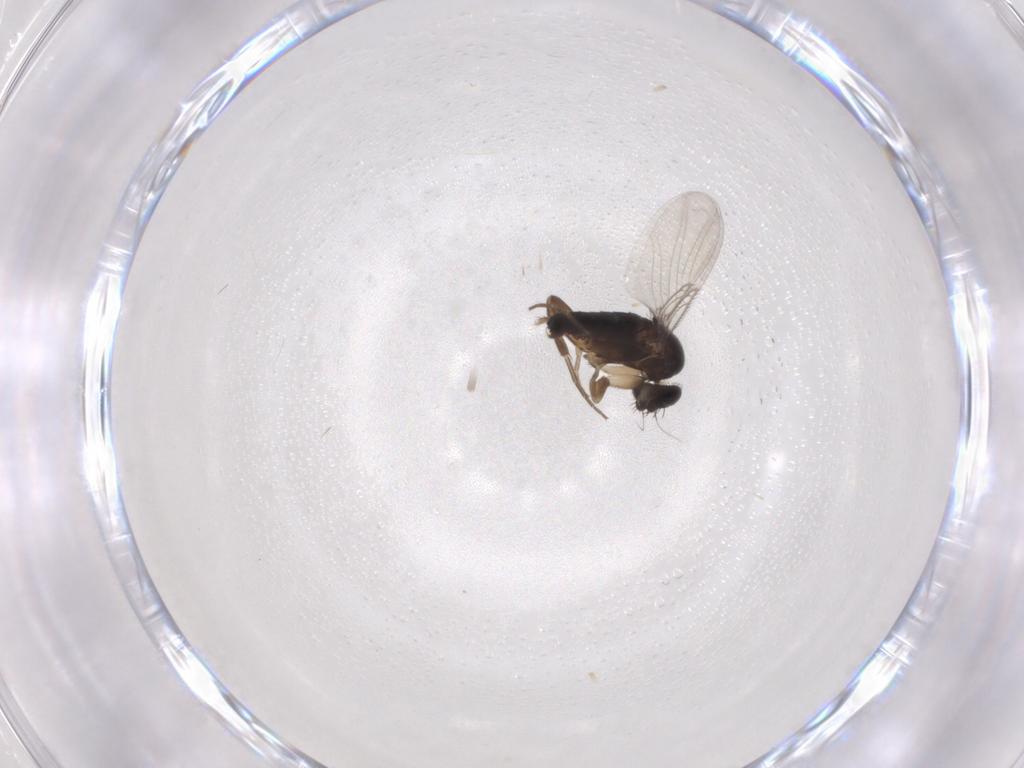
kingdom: Animalia
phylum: Arthropoda
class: Insecta
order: Diptera
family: Phoridae
